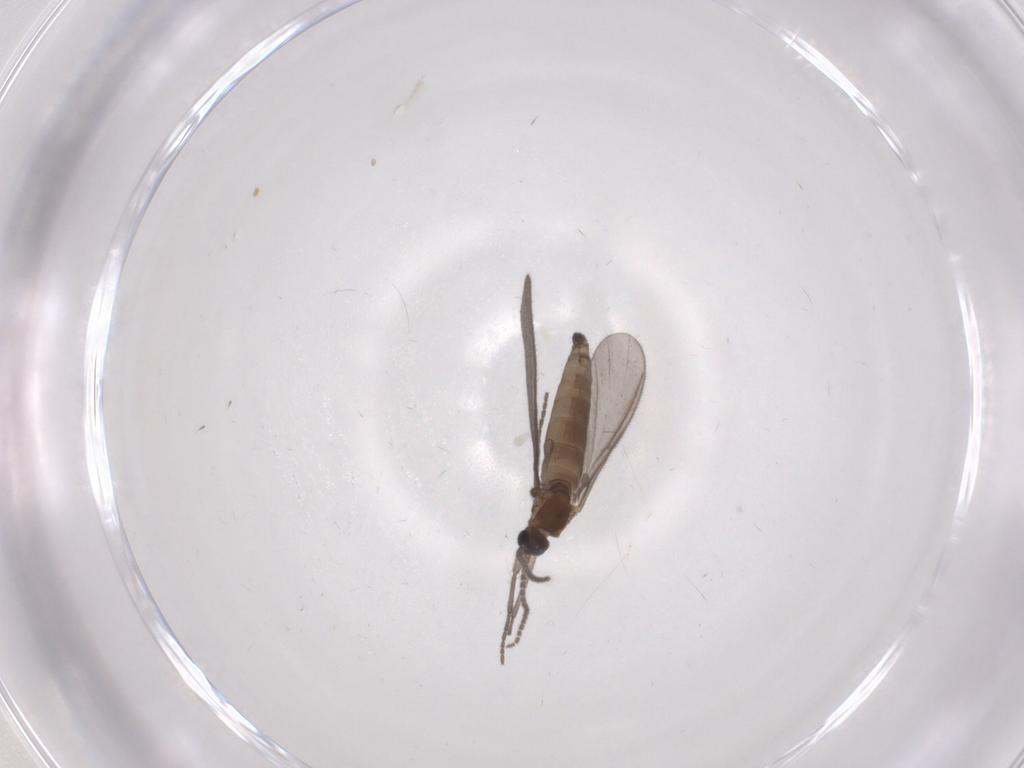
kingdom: Animalia
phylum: Arthropoda
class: Insecta
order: Diptera
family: Sciaridae
